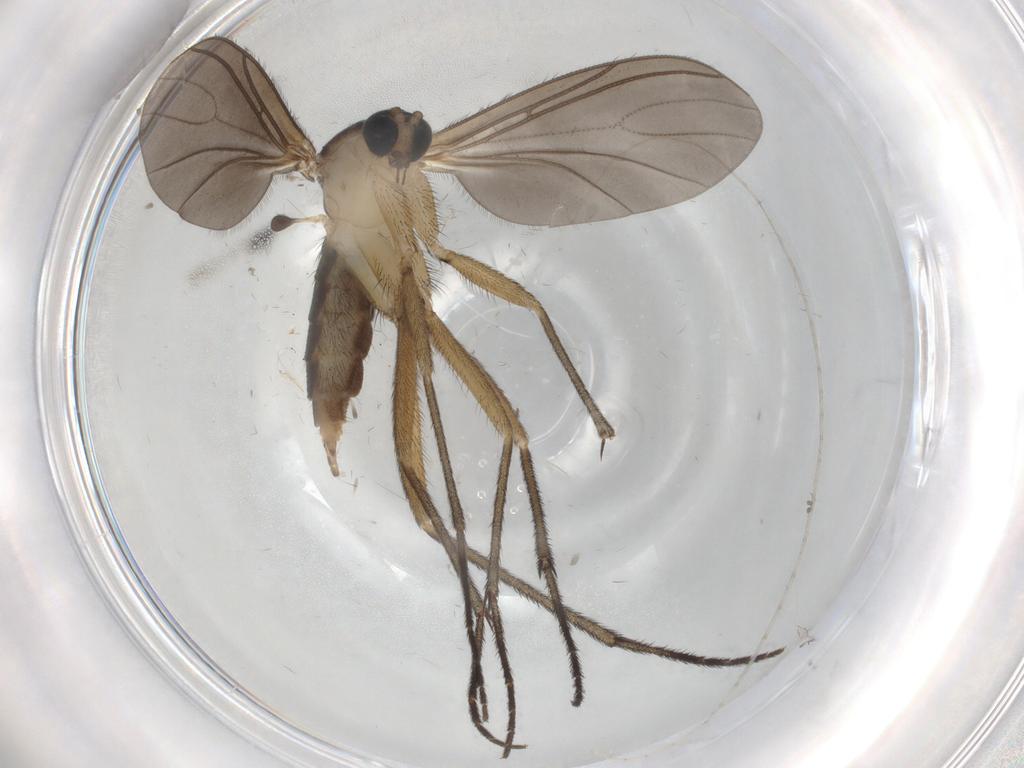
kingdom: Animalia
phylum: Arthropoda
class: Insecta
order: Diptera
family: Sciaridae
